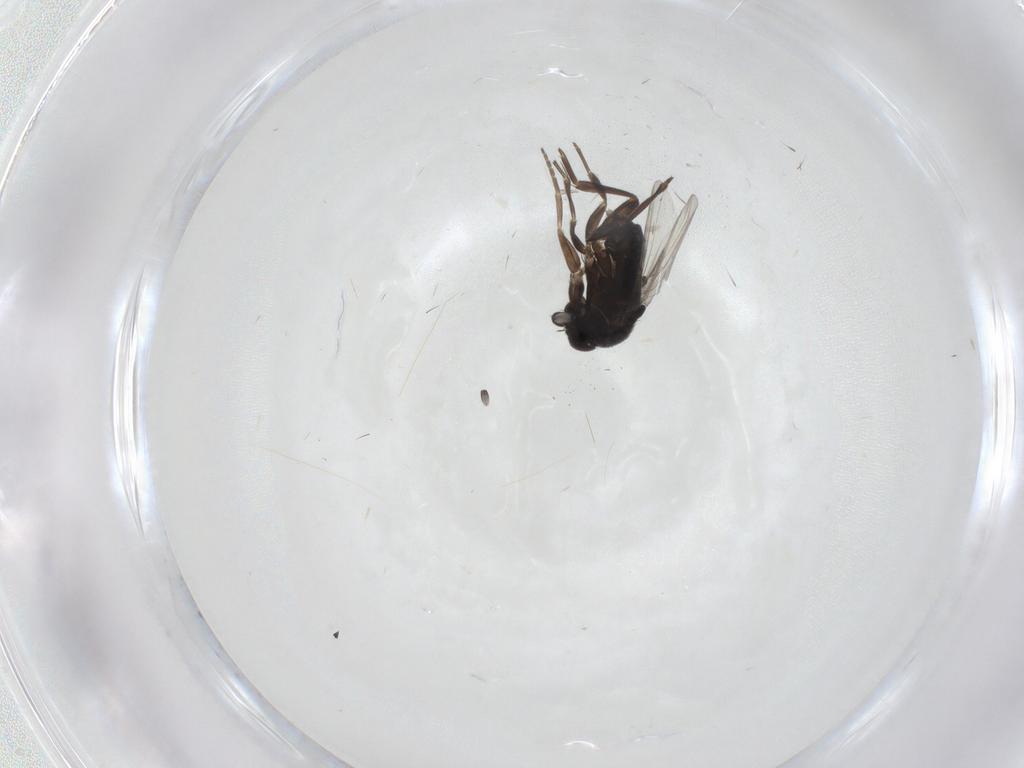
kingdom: Animalia
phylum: Arthropoda
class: Insecta
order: Diptera
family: Phoridae
